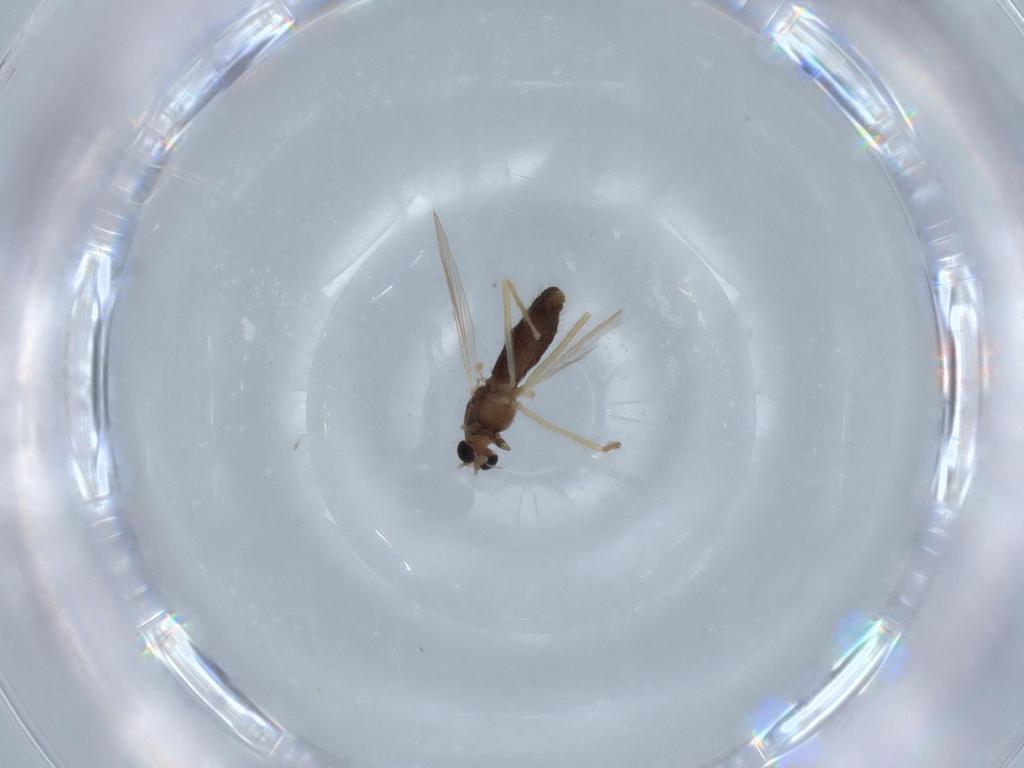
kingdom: Animalia
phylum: Arthropoda
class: Insecta
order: Diptera
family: Chironomidae
